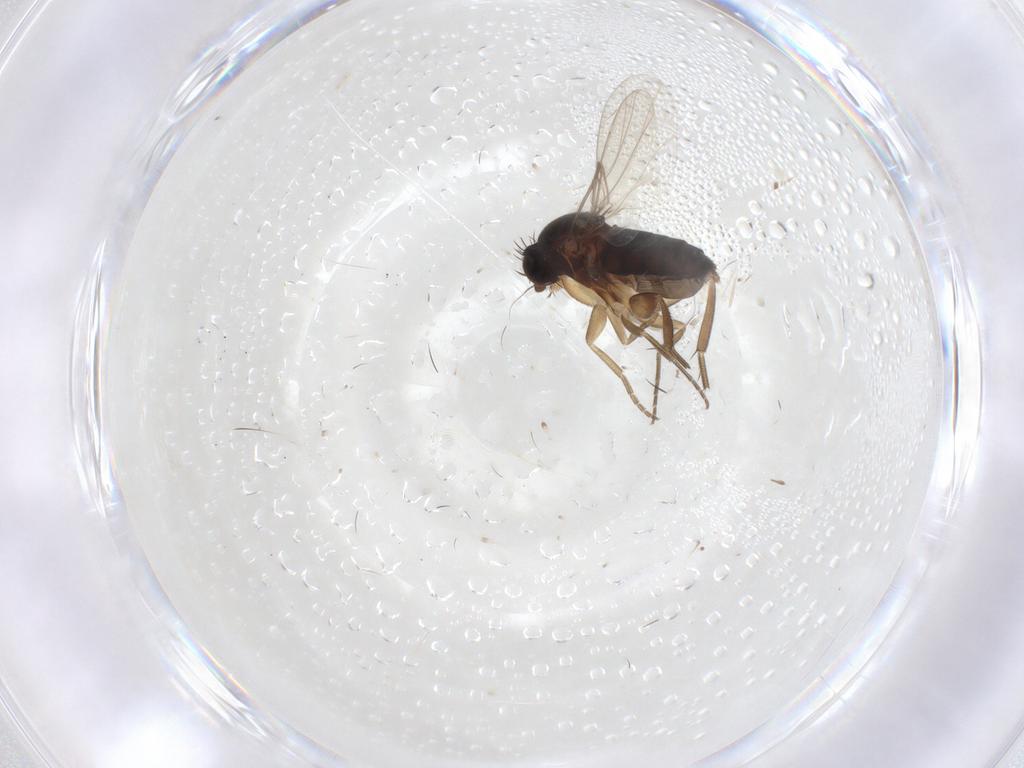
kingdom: Animalia
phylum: Arthropoda
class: Insecta
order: Diptera
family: Phoridae
